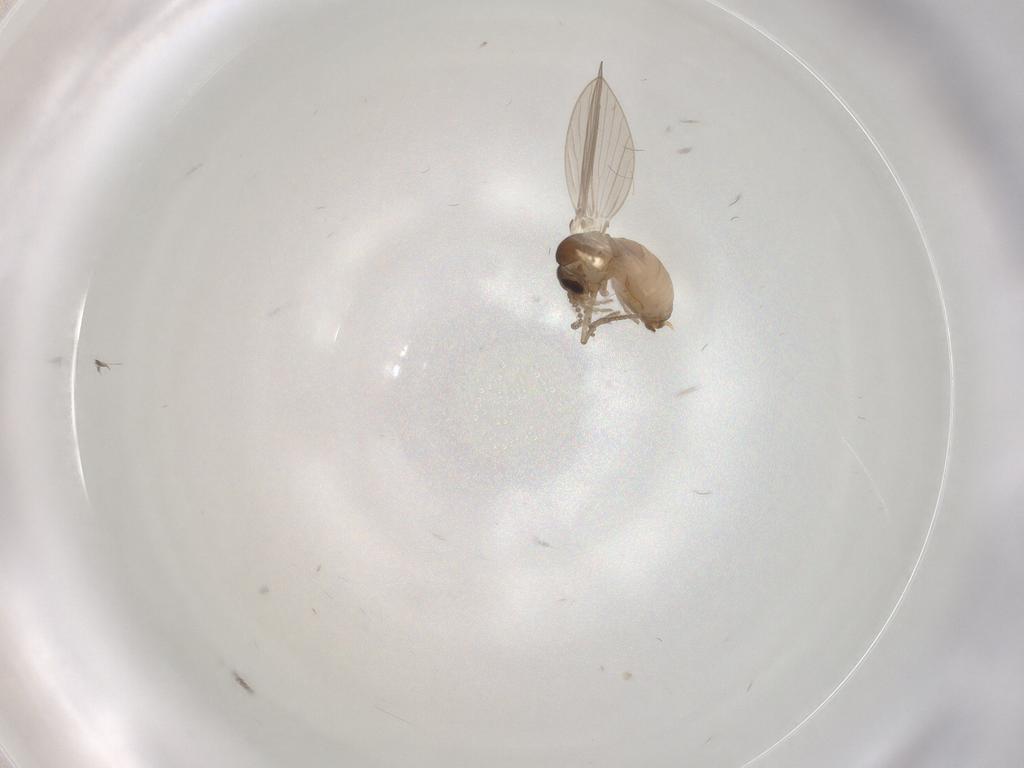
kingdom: Animalia
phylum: Arthropoda
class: Insecta
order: Diptera
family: Psychodidae
